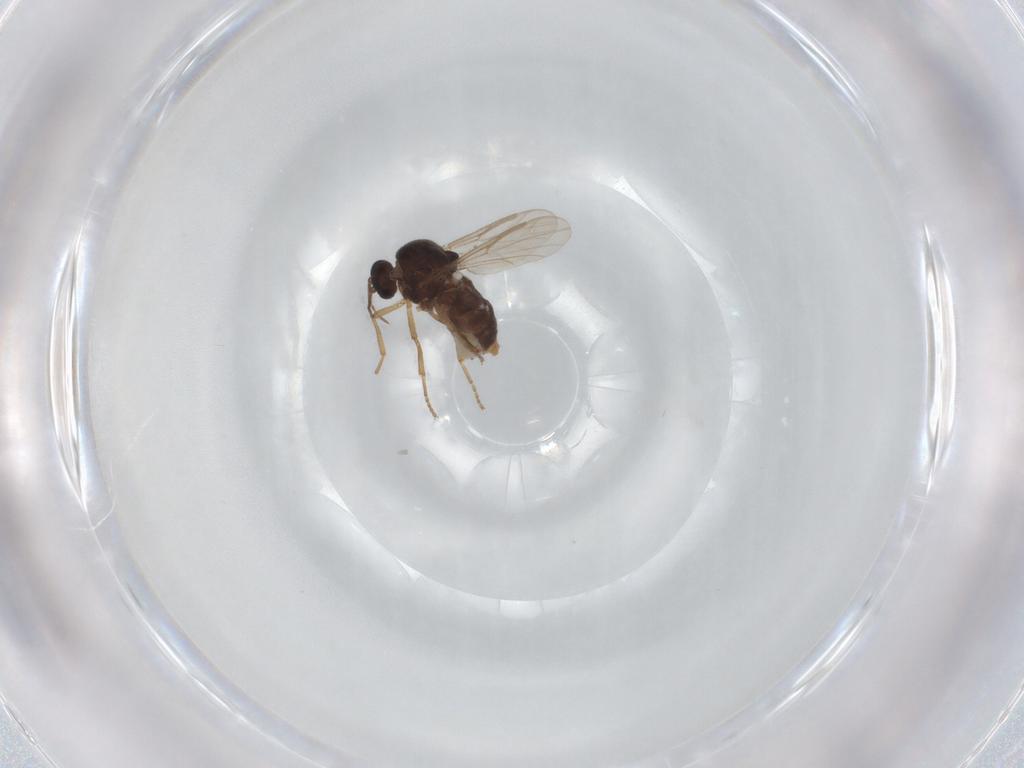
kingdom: Animalia
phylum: Arthropoda
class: Insecta
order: Diptera
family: Ceratopogonidae
